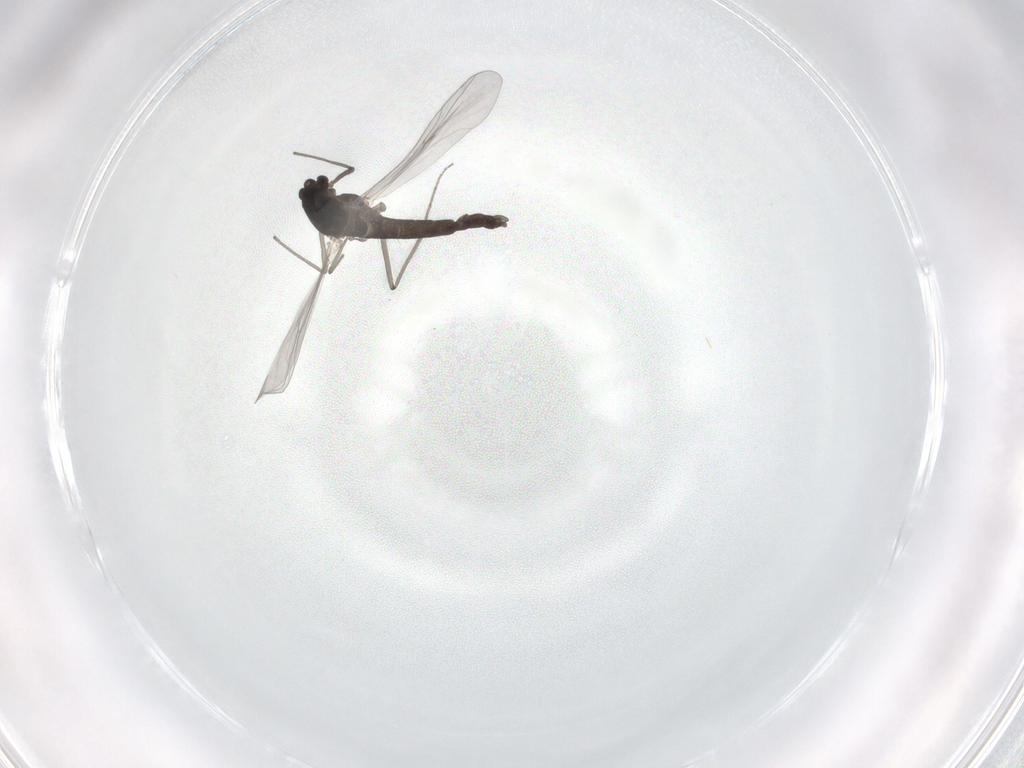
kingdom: Animalia
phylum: Arthropoda
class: Insecta
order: Diptera
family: Chironomidae
